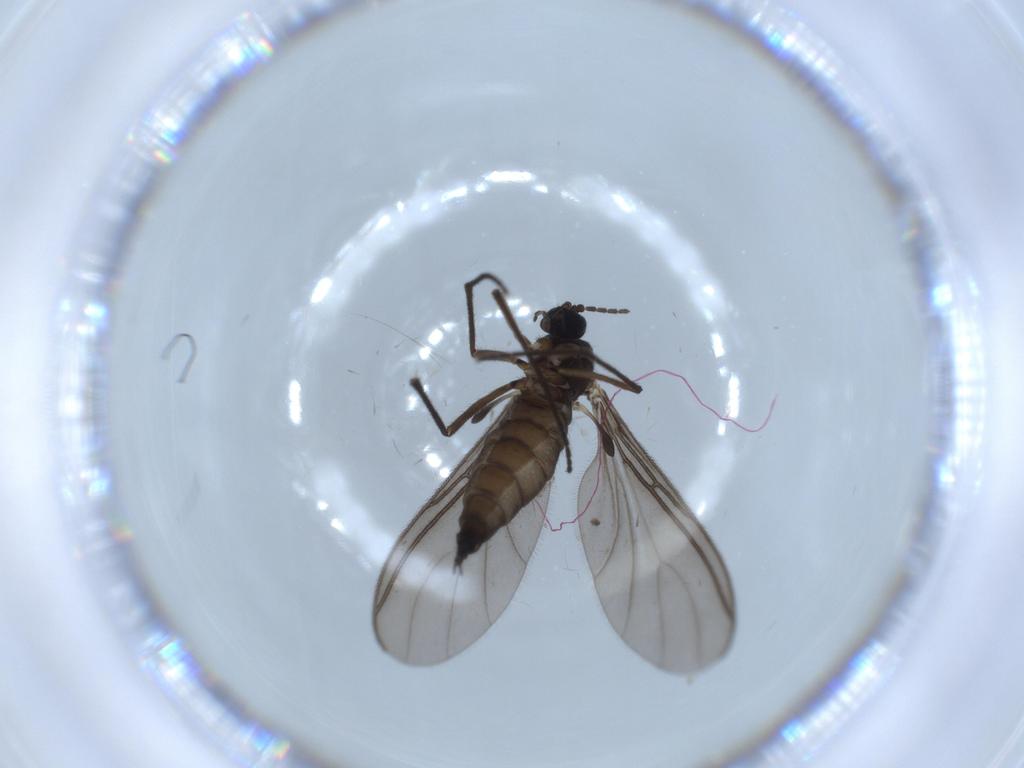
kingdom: Animalia
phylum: Arthropoda
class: Insecta
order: Diptera
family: Sciaridae
